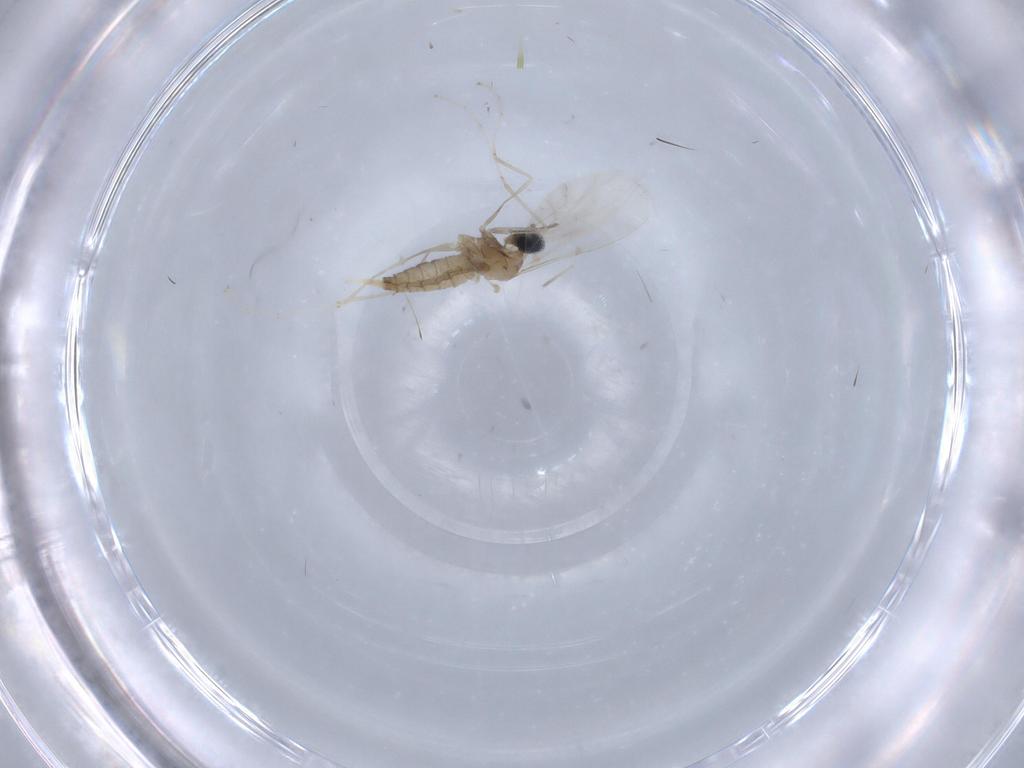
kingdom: Animalia
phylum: Arthropoda
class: Insecta
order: Diptera
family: Cecidomyiidae
